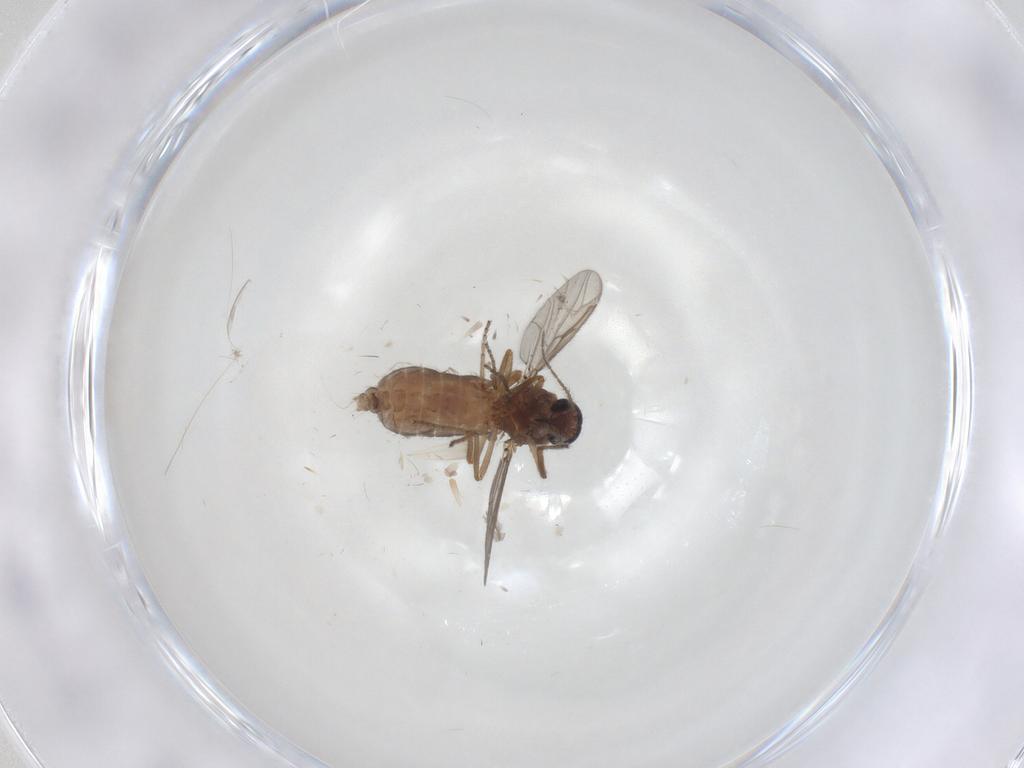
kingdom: Animalia
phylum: Arthropoda
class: Insecta
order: Diptera
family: Ceratopogonidae
